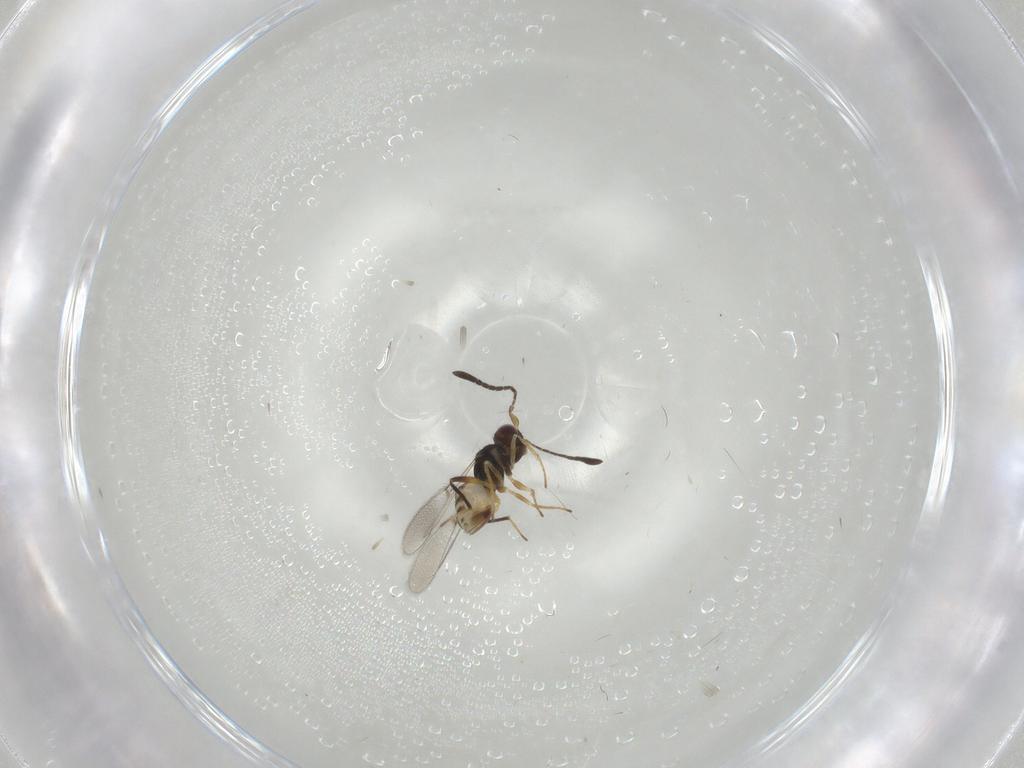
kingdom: Animalia
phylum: Arthropoda
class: Insecta
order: Hymenoptera
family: Mymaridae
